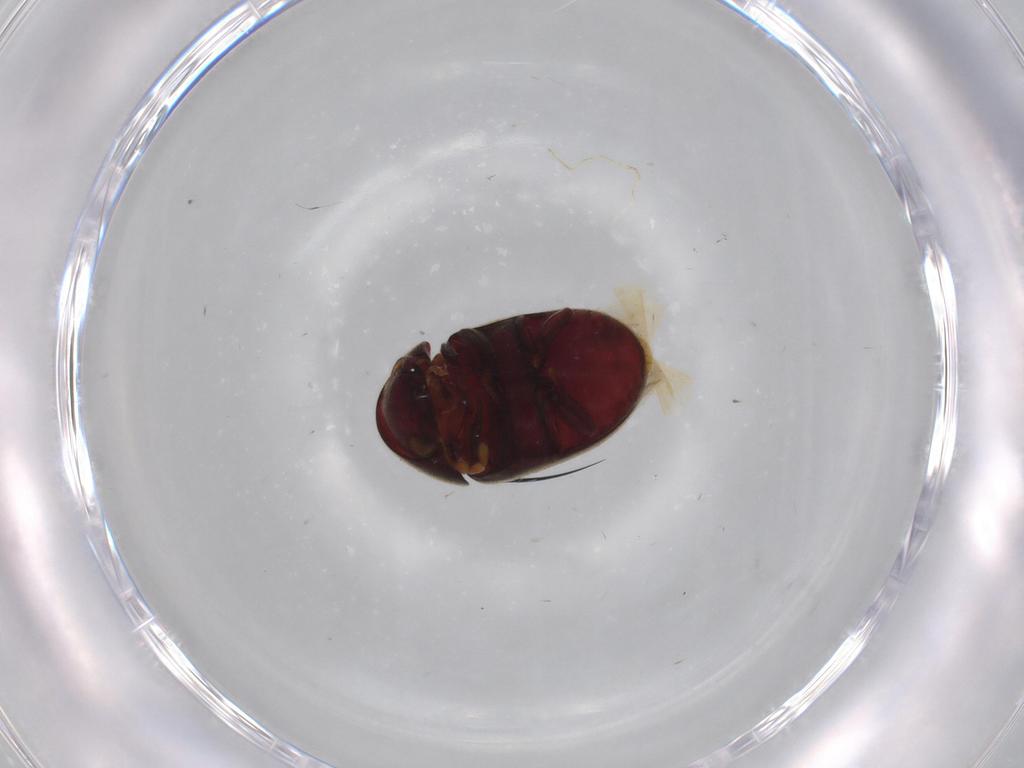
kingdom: Animalia
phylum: Arthropoda
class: Insecta
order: Coleoptera
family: Ptinidae
